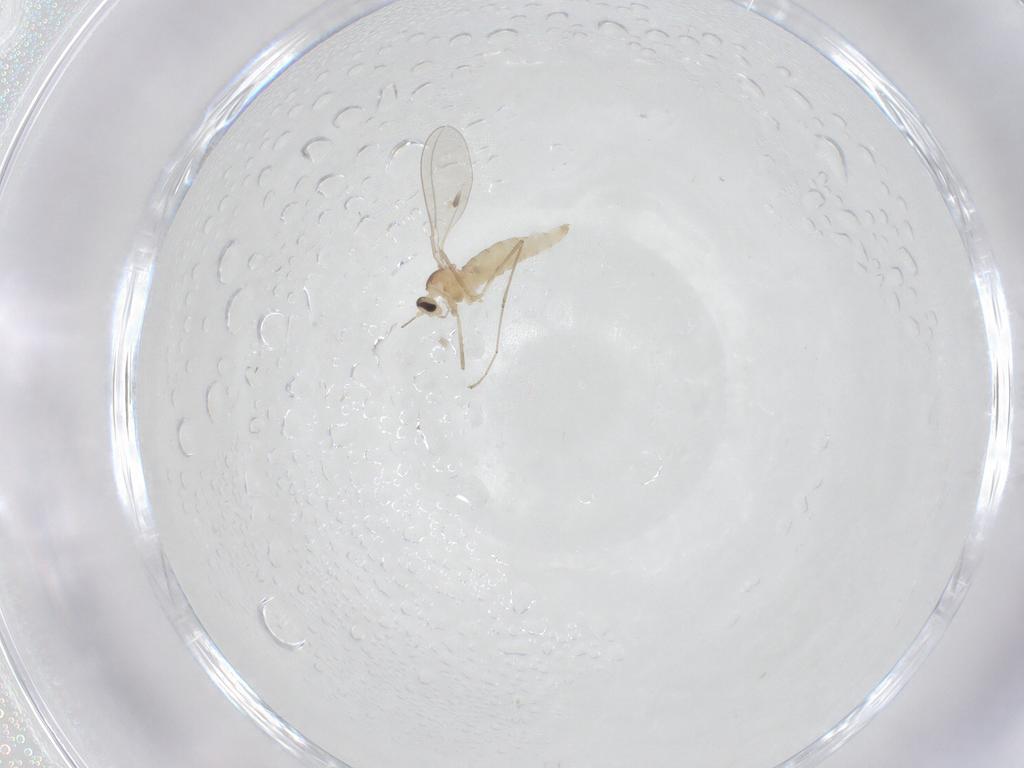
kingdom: Animalia
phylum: Arthropoda
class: Insecta
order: Diptera
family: Cecidomyiidae
